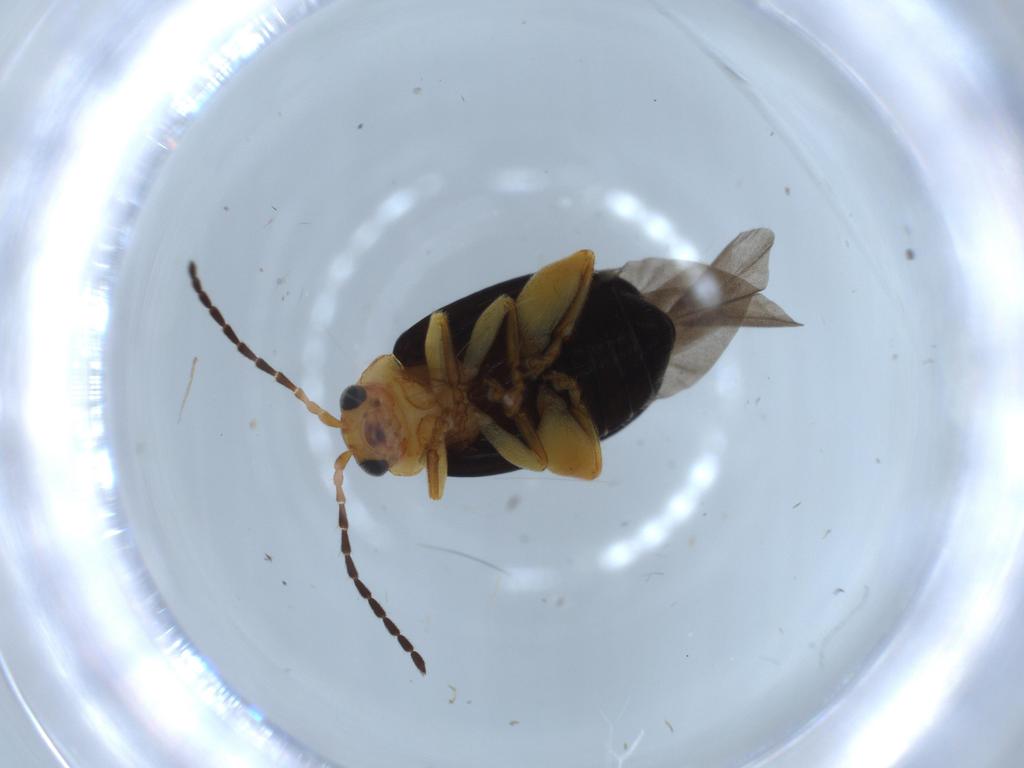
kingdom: Animalia
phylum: Arthropoda
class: Insecta
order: Coleoptera
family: Chrysomelidae
